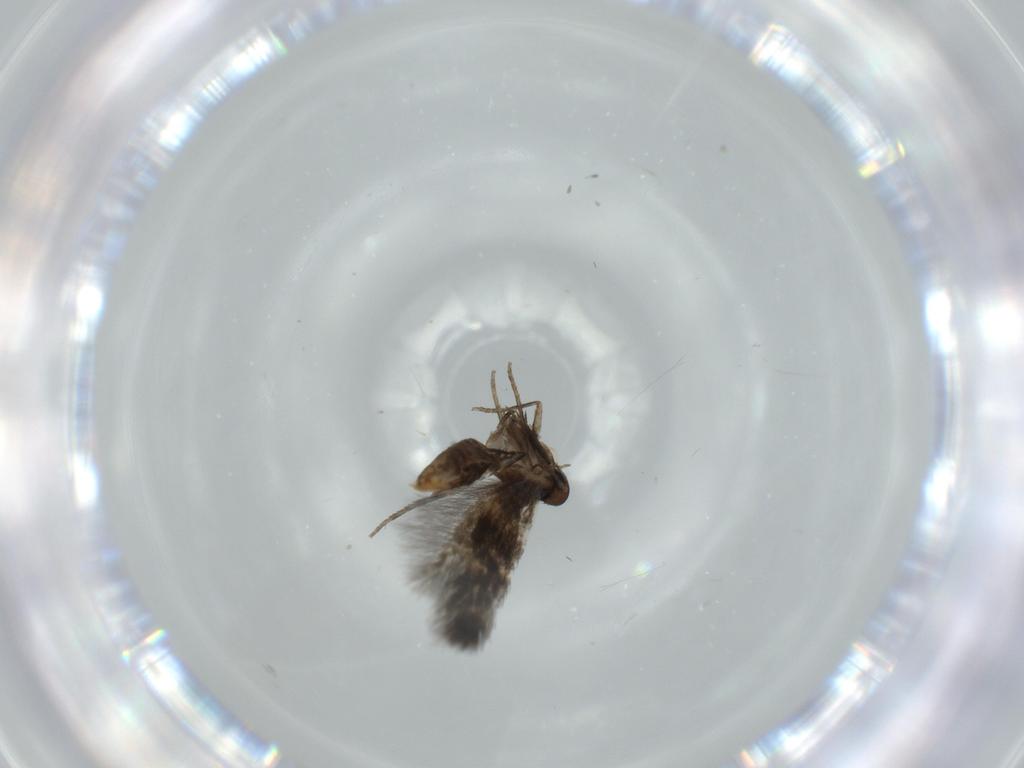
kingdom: Animalia
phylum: Arthropoda
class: Insecta
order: Lepidoptera
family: Heliozelidae
